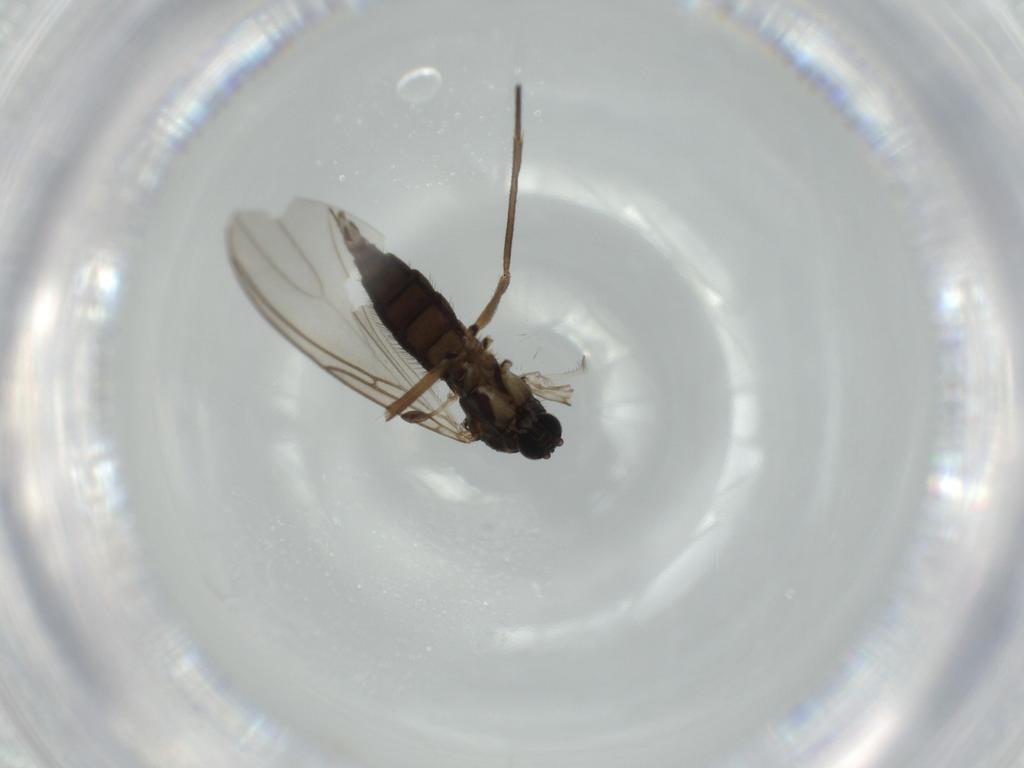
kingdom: Animalia
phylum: Arthropoda
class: Insecta
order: Diptera
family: Sciaridae
